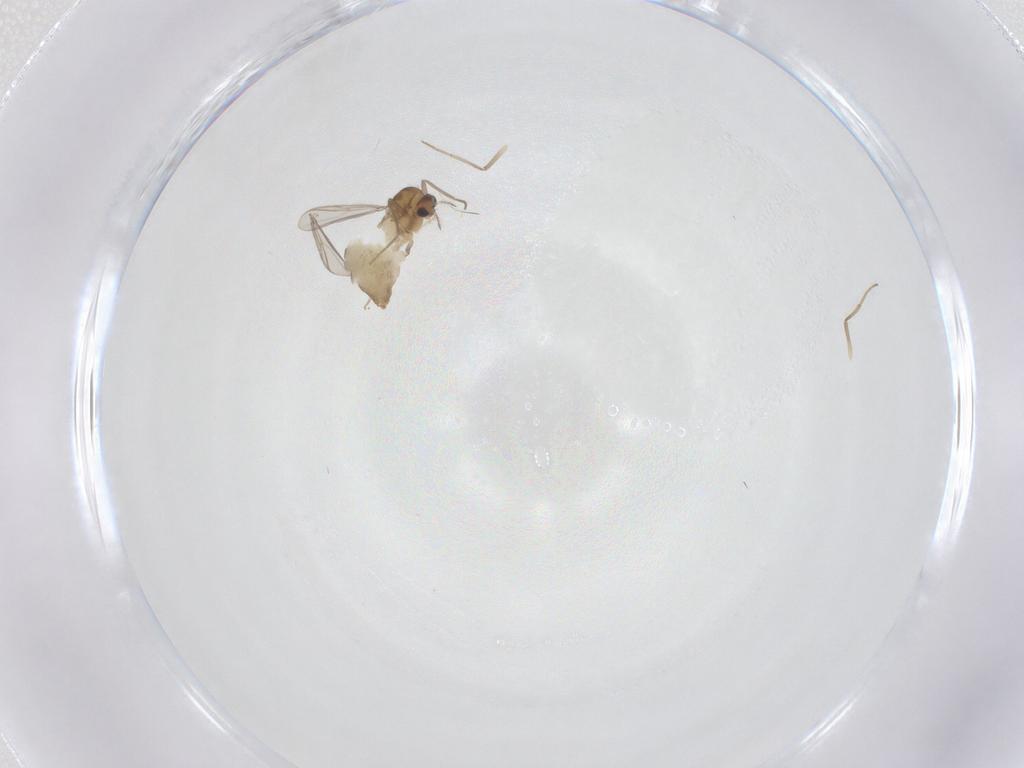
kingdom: Animalia
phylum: Arthropoda
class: Insecta
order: Diptera
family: Chironomidae
